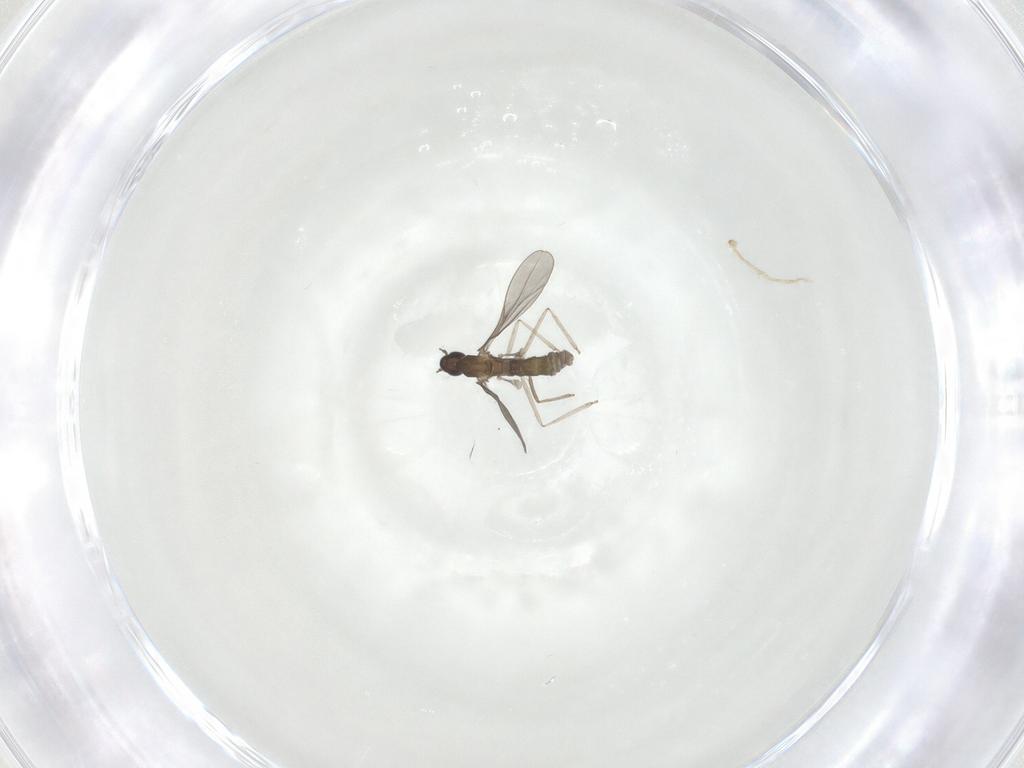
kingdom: Animalia
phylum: Arthropoda
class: Insecta
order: Diptera
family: Cecidomyiidae
